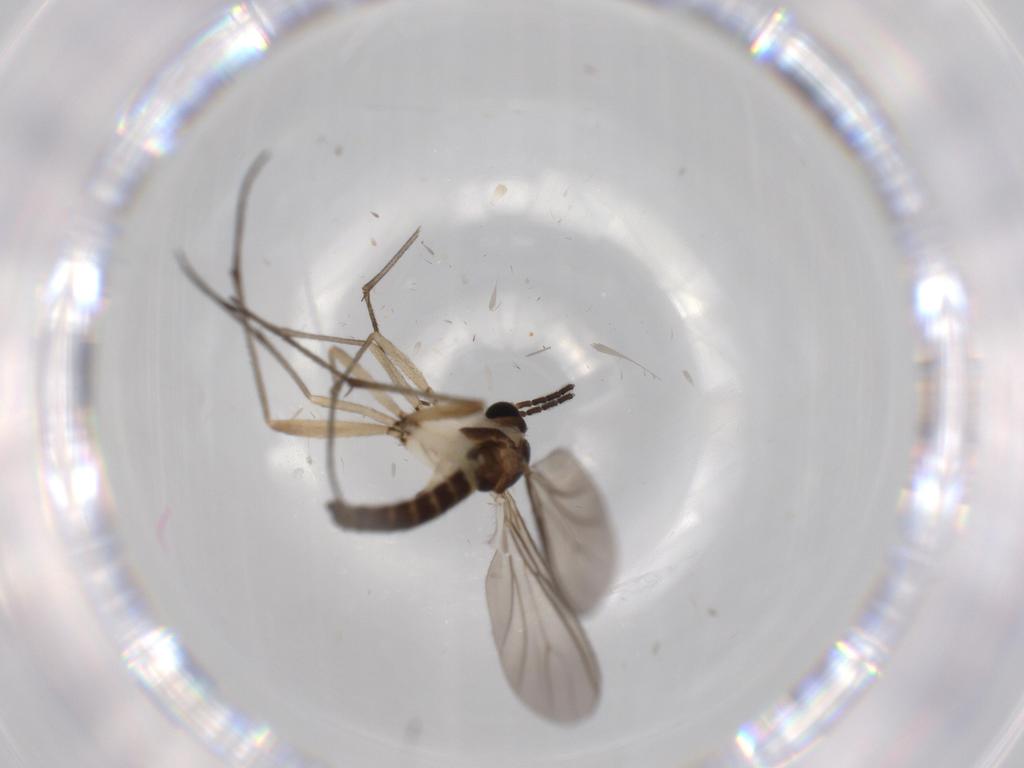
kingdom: Animalia
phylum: Arthropoda
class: Insecta
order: Diptera
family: Sciaridae
